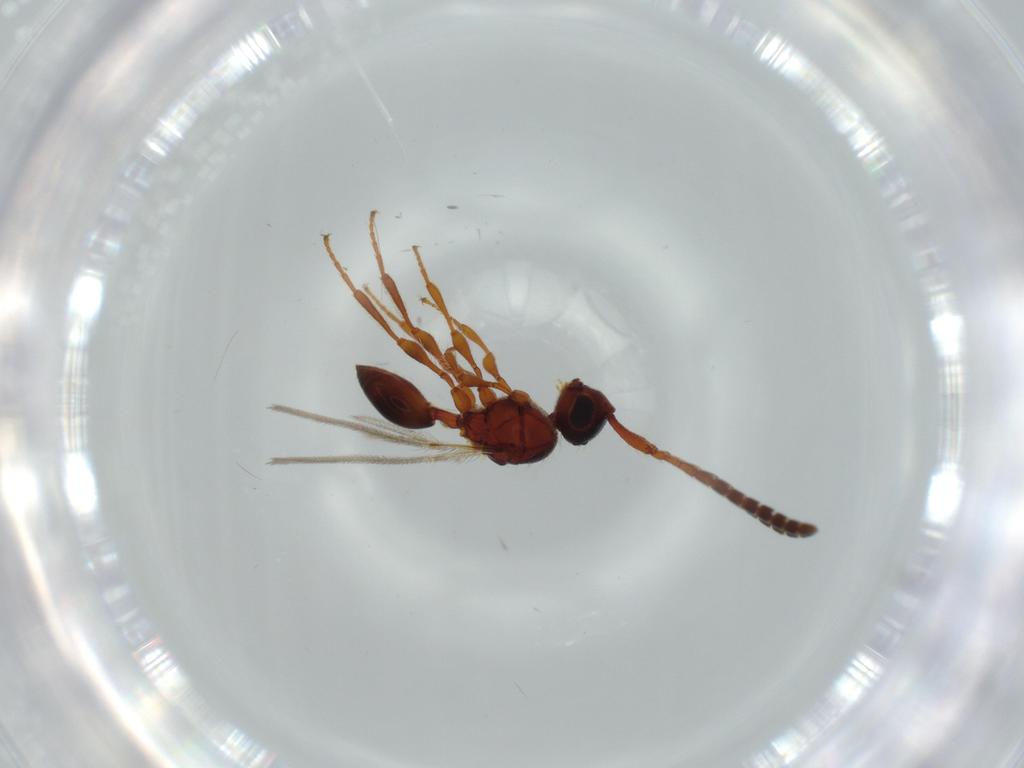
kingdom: Animalia
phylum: Arthropoda
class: Insecta
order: Hymenoptera
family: Diapriidae
